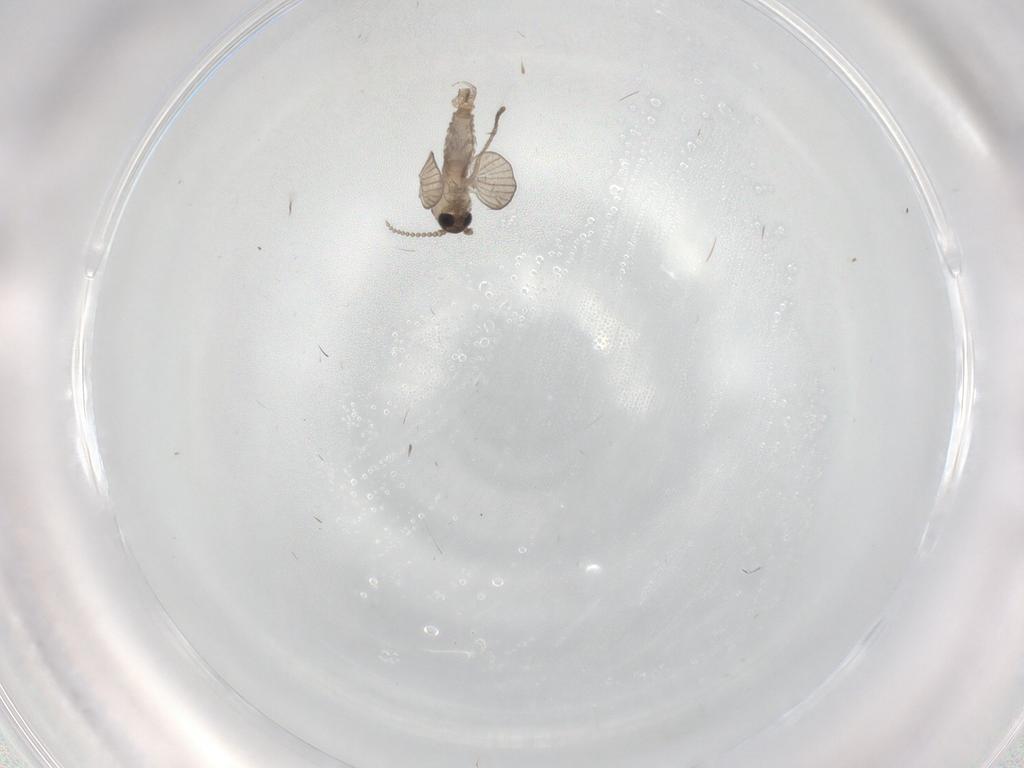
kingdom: Animalia
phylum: Arthropoda
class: Insecta
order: Diptera
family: Psychodidae
